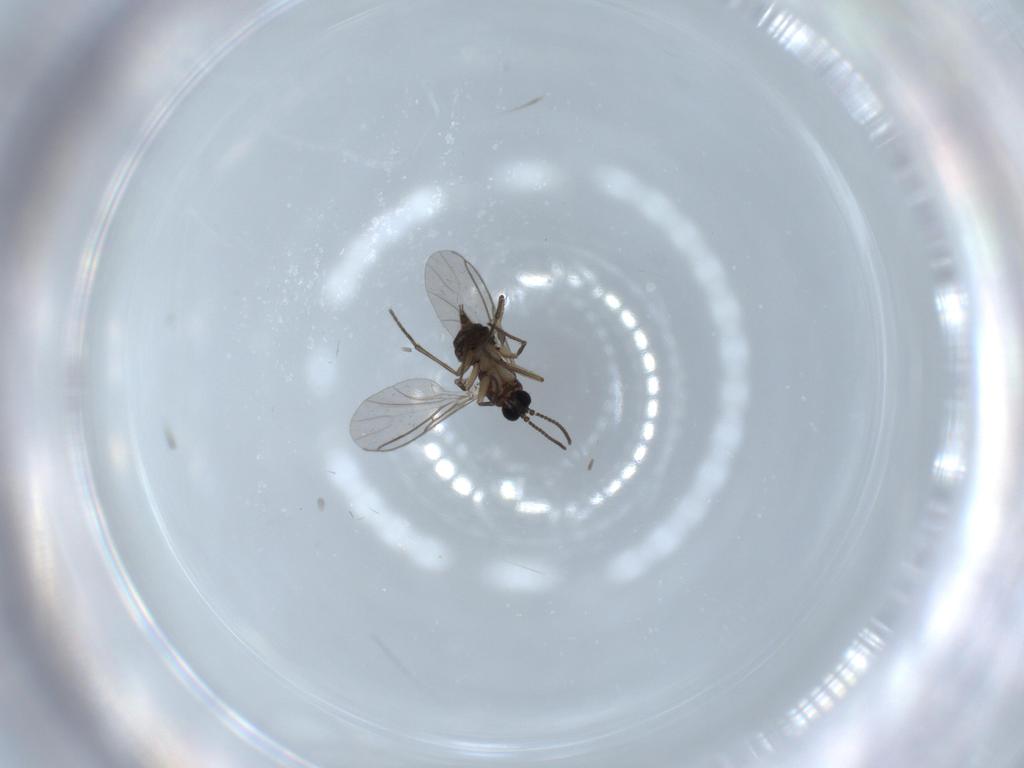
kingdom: Animalia
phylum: Arthropoda
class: Insecta
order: Diptera
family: Sciaridae
